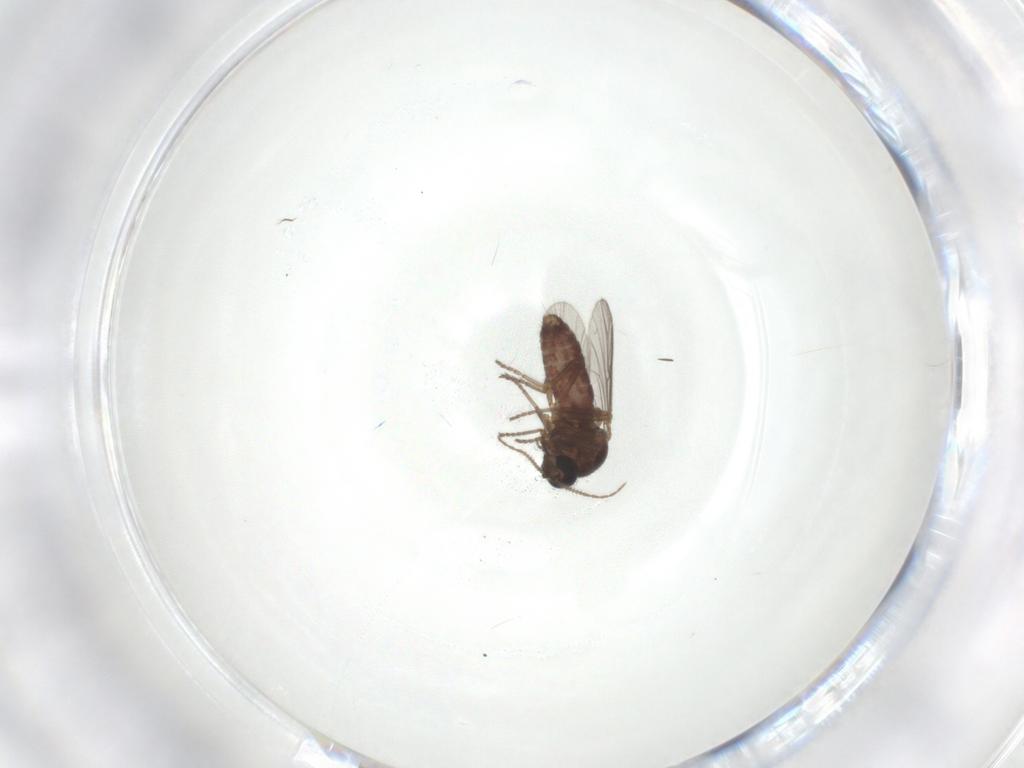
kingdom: Animalia
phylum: Arthropoda
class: Insecta
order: Diptera
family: Ceratopogonidae
